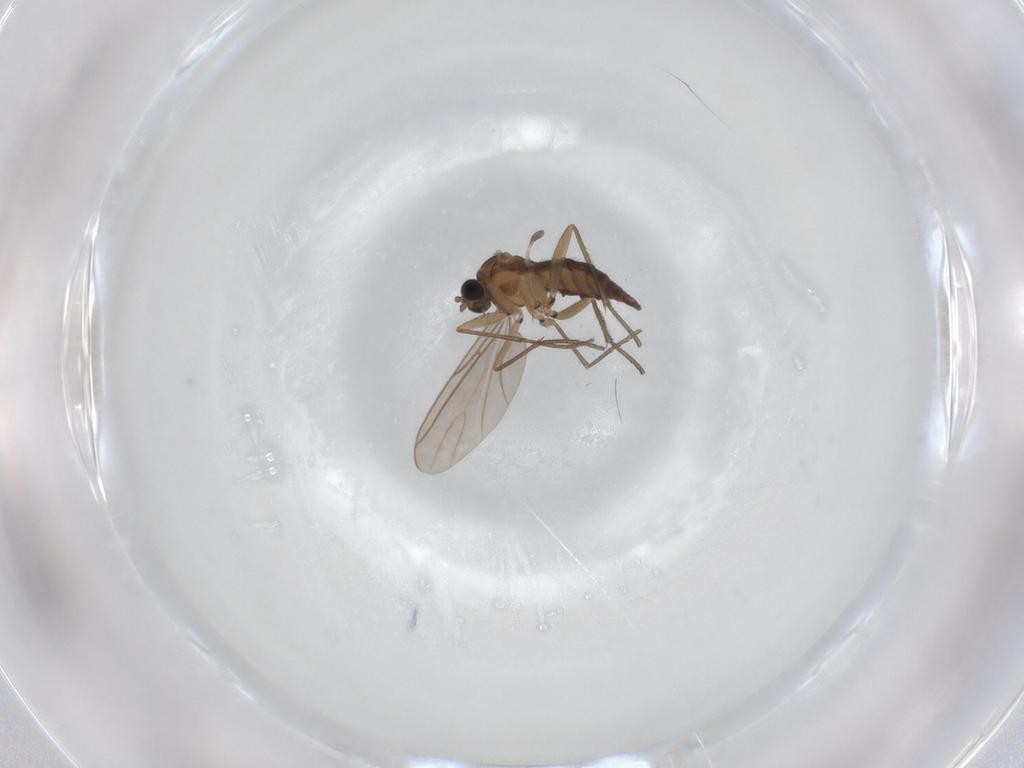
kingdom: Animalia
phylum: Arthropoda
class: Insecta
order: Diptera
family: Sciaridae
